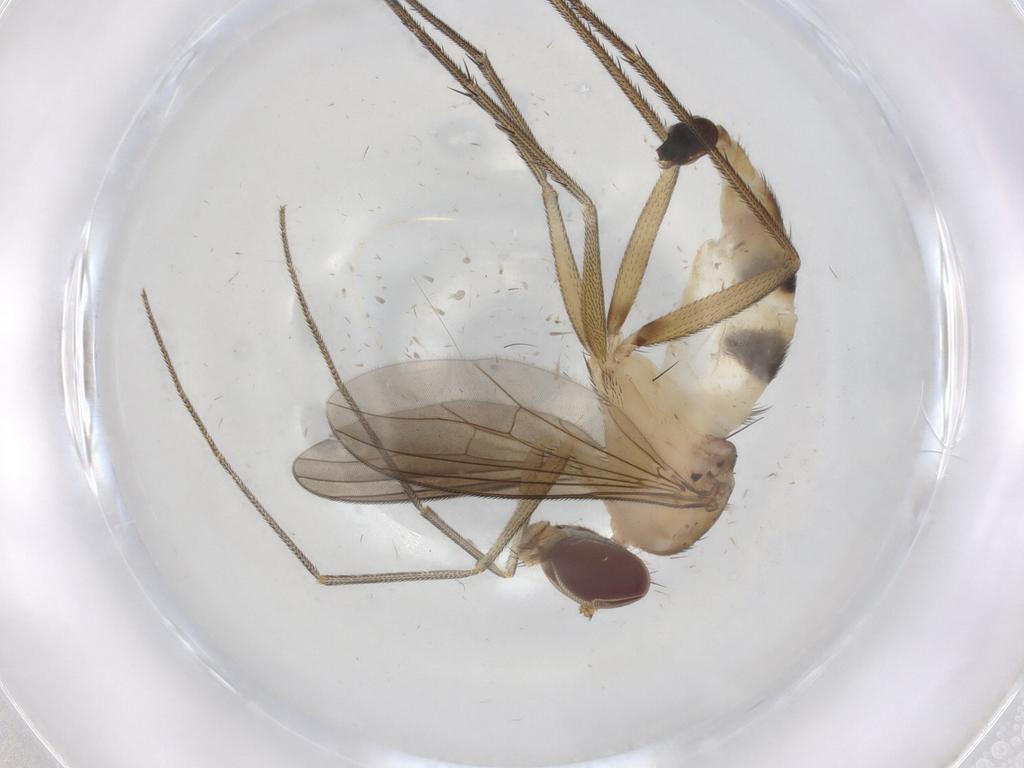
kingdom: Animalia
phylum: Arthropoda
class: Insecta
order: Diptera
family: Dolichopodidae
